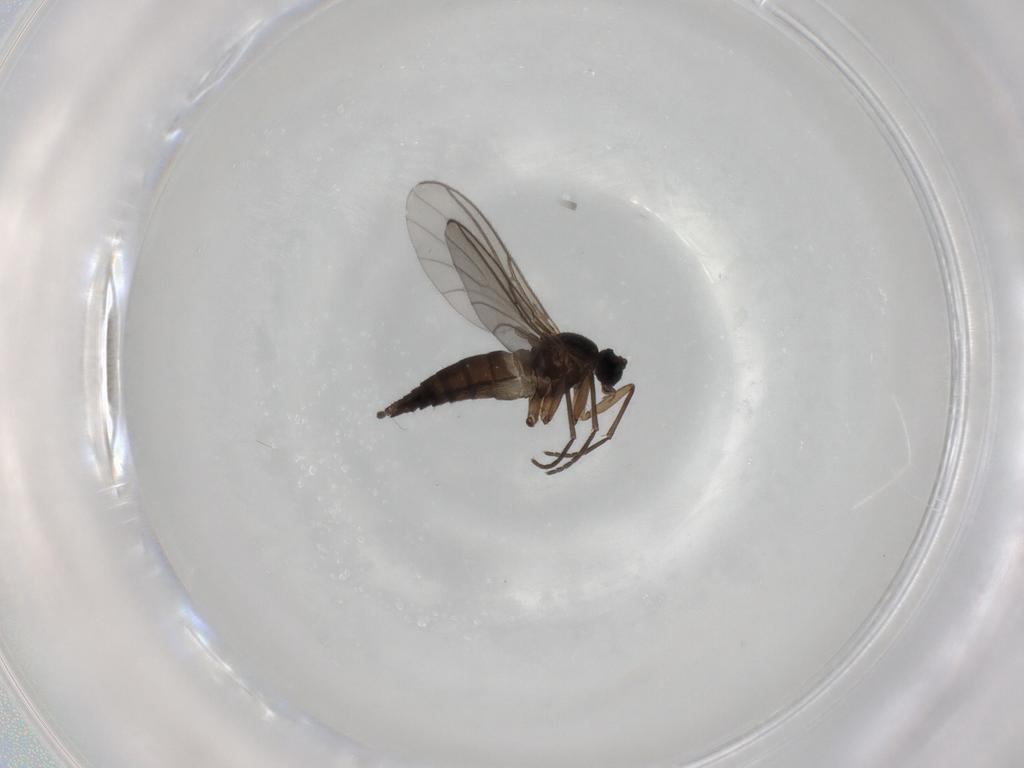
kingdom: Animalia
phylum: Arthropoda
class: Insecta
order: Diptera
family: Sciaridae
